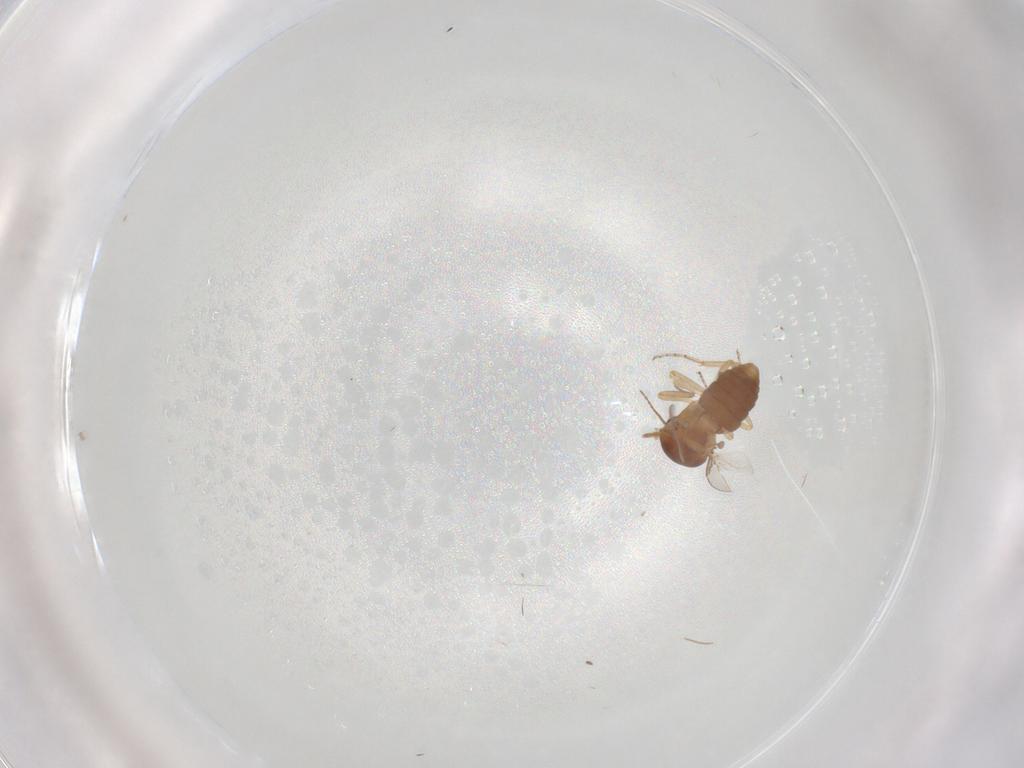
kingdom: Animalia
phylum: Arthropoda
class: Insecta
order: Diptera
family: Ceratopogonidae
